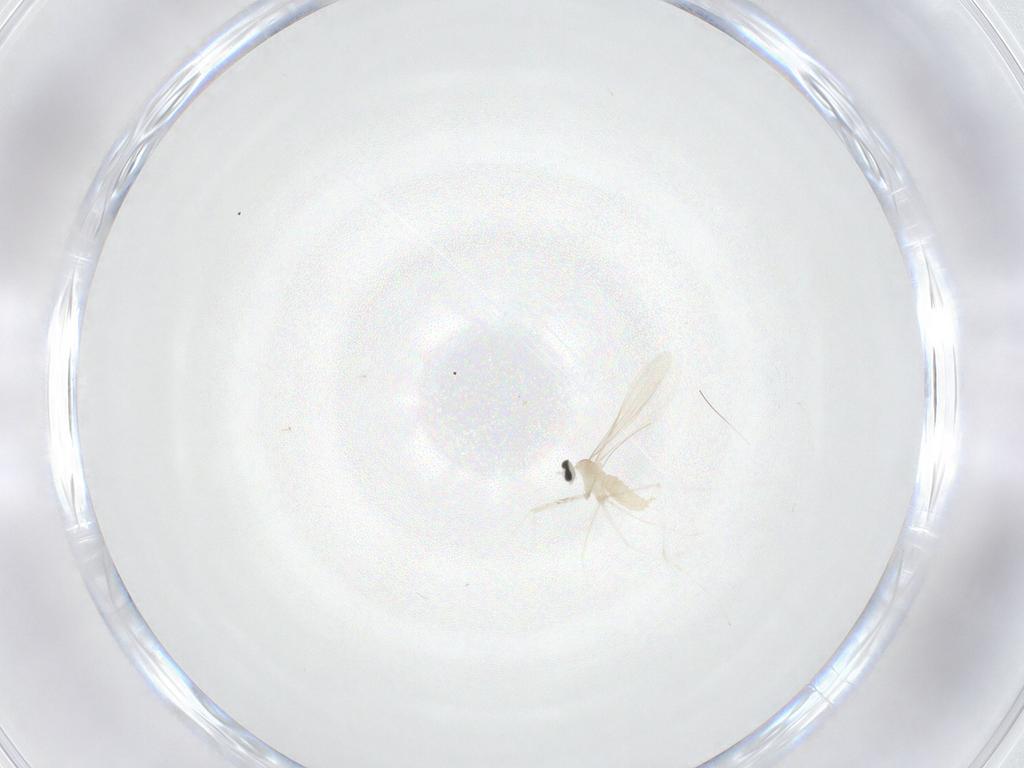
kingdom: Animalia
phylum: Arthropoda
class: Insecta
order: Diptera
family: Cecidomyiidae
